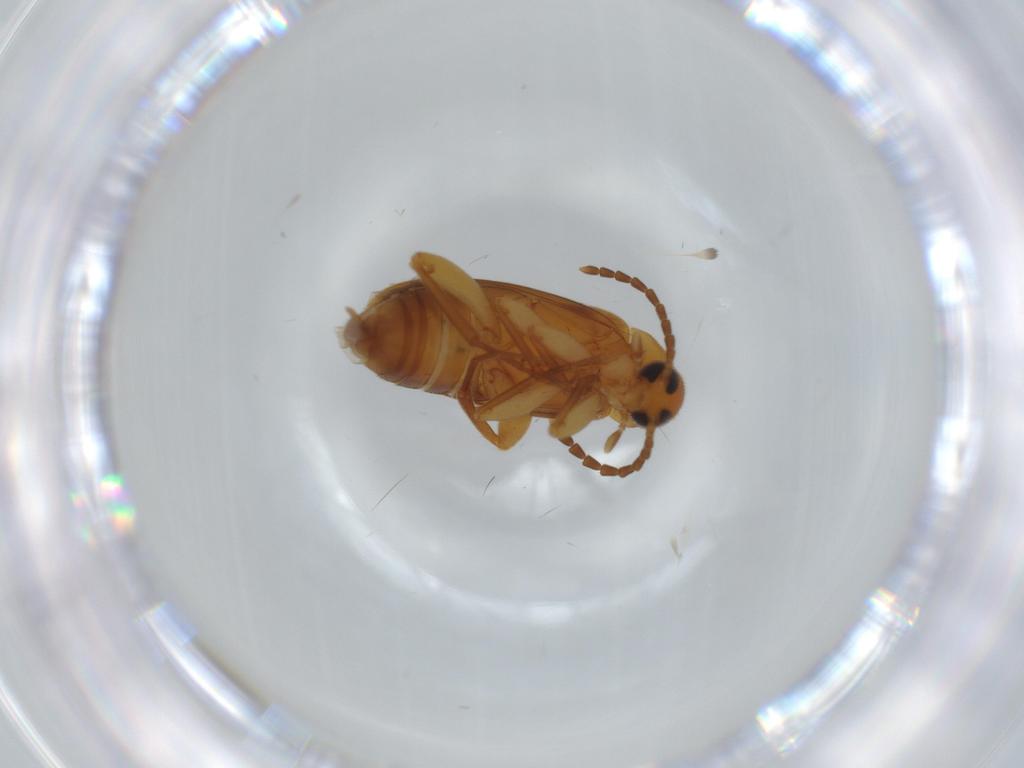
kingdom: Animalia
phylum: Arthropoda
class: Insecta
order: Coleoptera
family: Scraptiidae
